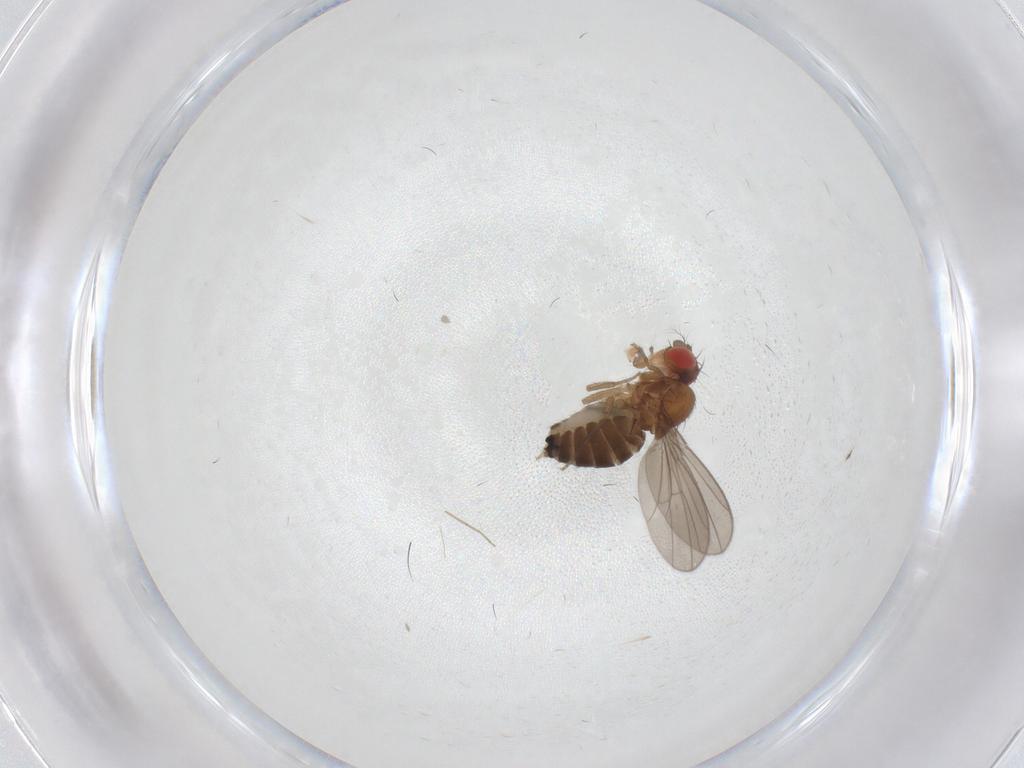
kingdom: Animalia
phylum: Arthropoda
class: Insecta
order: Diptera
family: Drosophilidae
